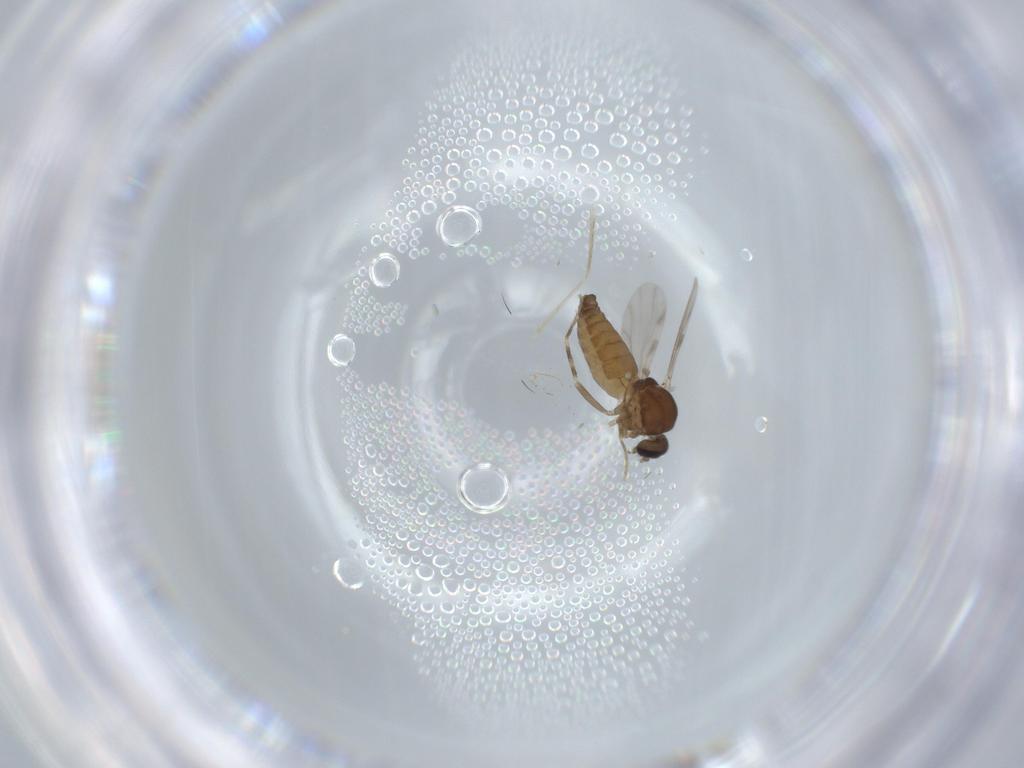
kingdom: Animalia
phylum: Arthropoda
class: Insecta
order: Diptera
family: Ceratopogonidae
